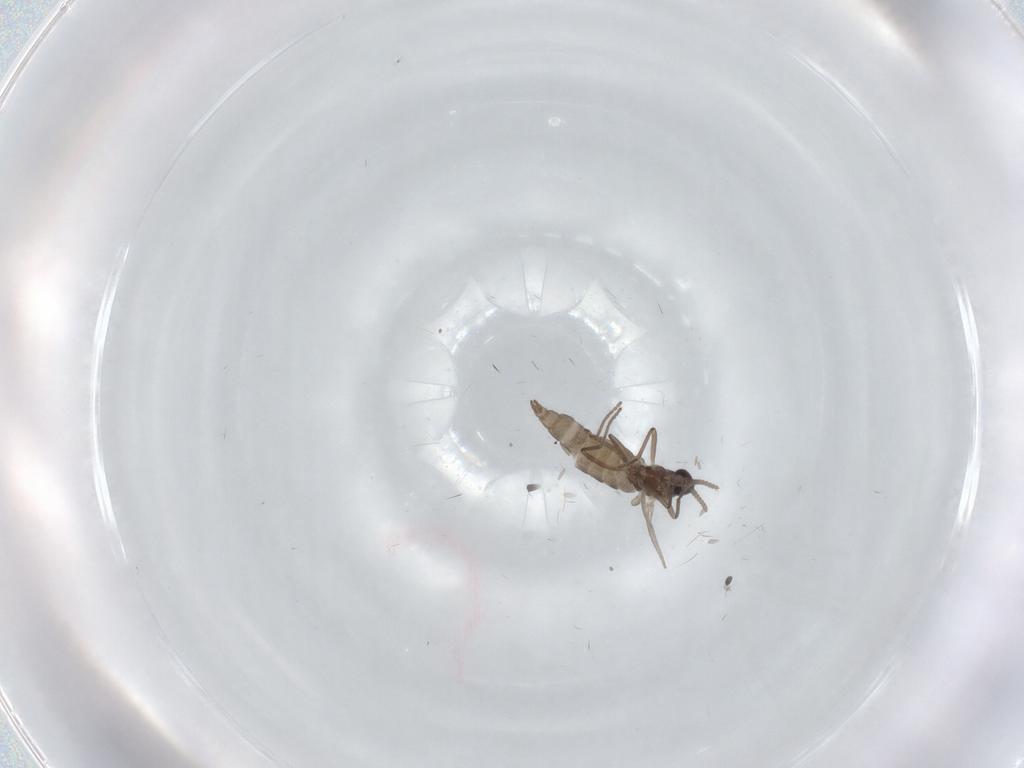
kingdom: Animalia
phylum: Arthropoda
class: Insecta
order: Diptera
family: Cecidomyiidae
